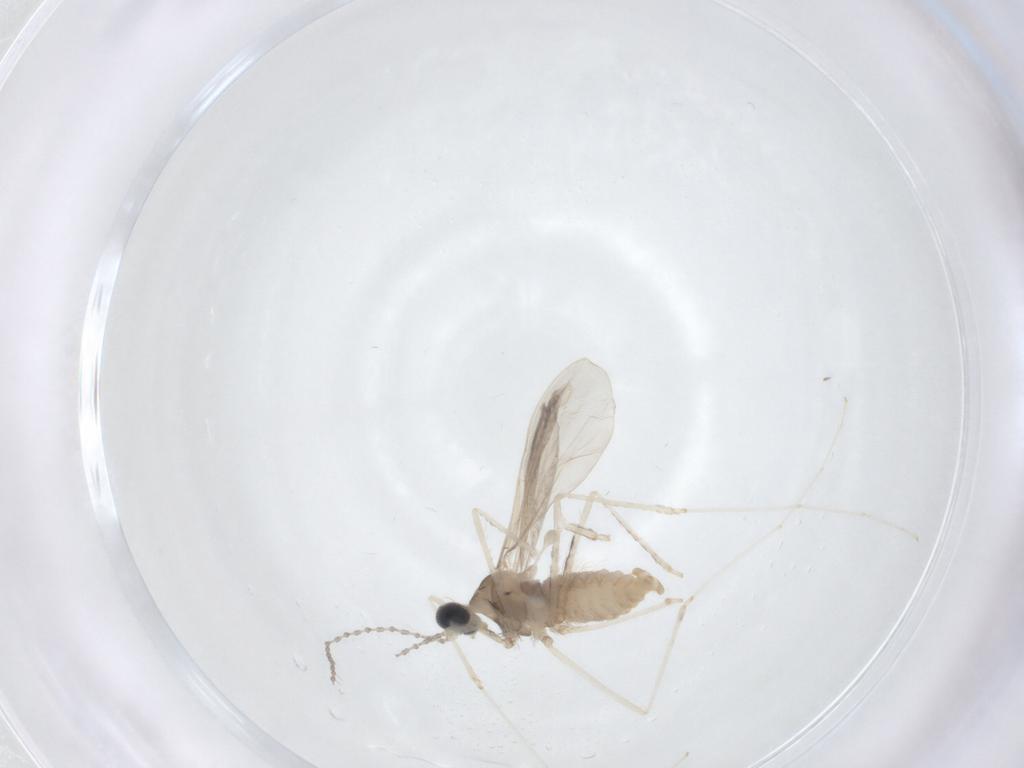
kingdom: Animalia
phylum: Arthropoda
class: Insecta
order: Diptera
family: Cecidomyiidae
